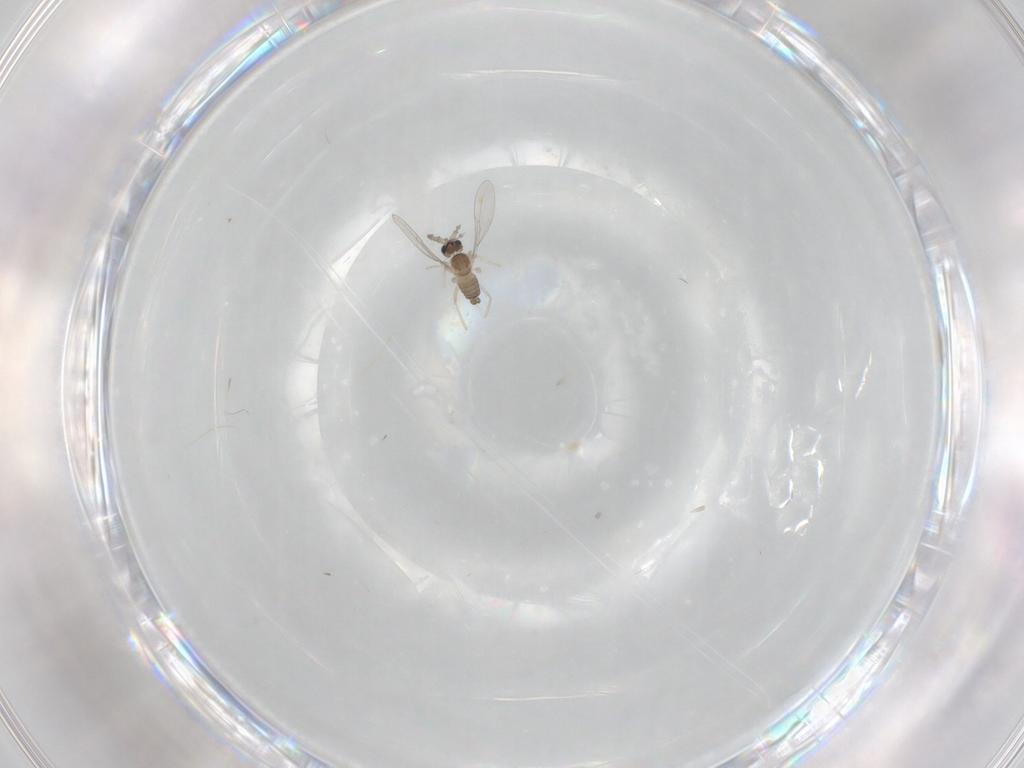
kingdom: Animalia
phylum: Arthropoda
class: Insecta
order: Diptera
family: Cecidomyiidae
